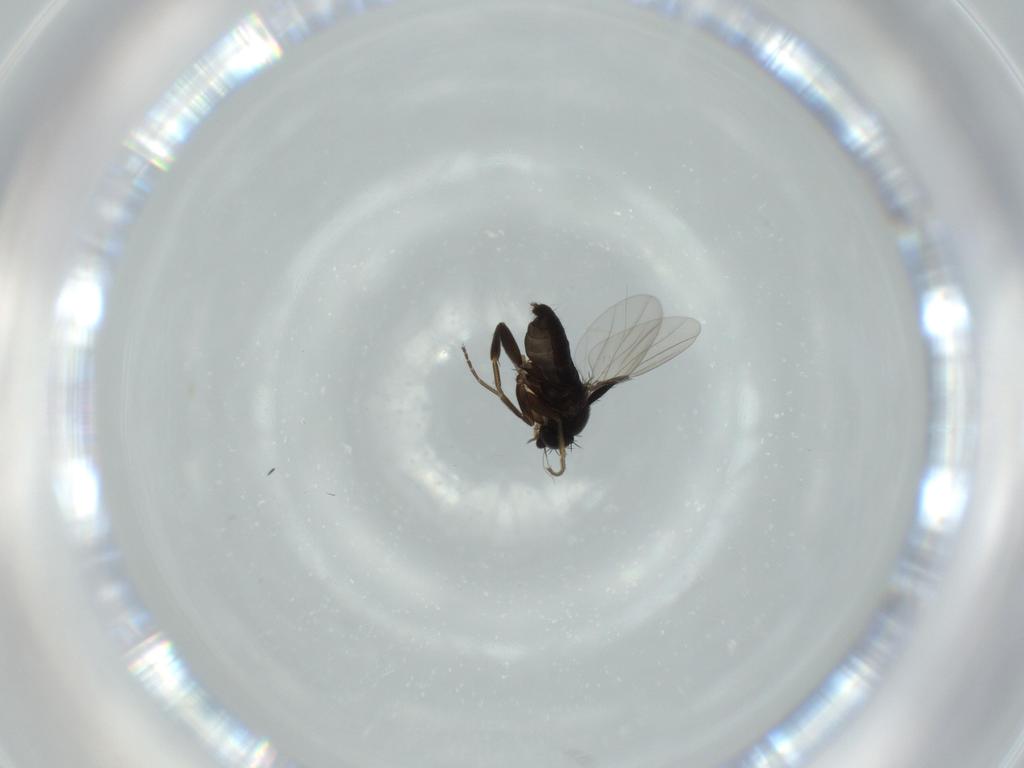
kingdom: Animalia
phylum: Arthropoda
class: Insecta
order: Diptera
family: Phoridae
